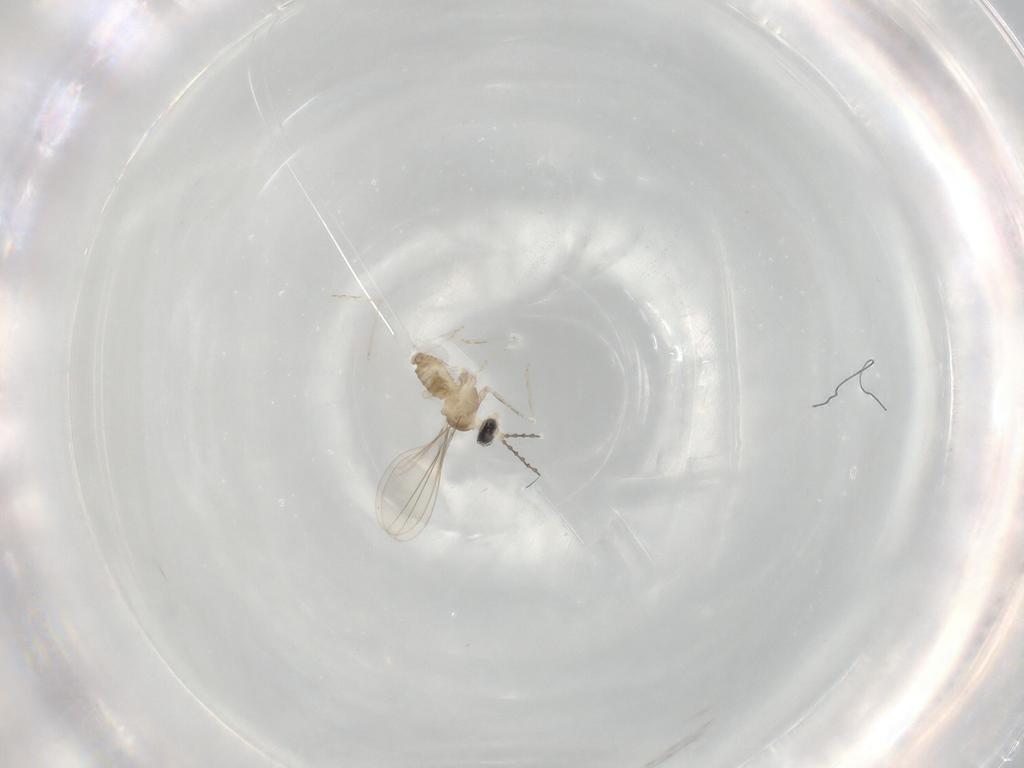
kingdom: Animalia
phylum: Arthropoda
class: Insecta
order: Diptera
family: Cecidomyiidae
